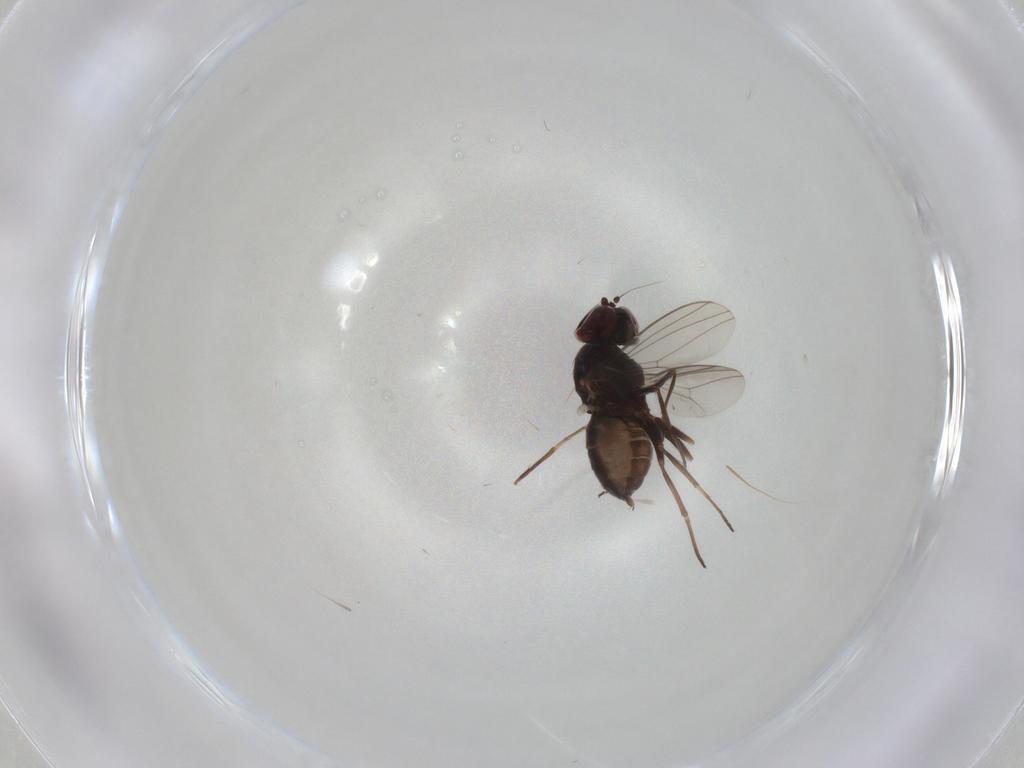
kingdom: Animalia
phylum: Arthropoda
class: Insecta
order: Diptera
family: Dolichopodidae
